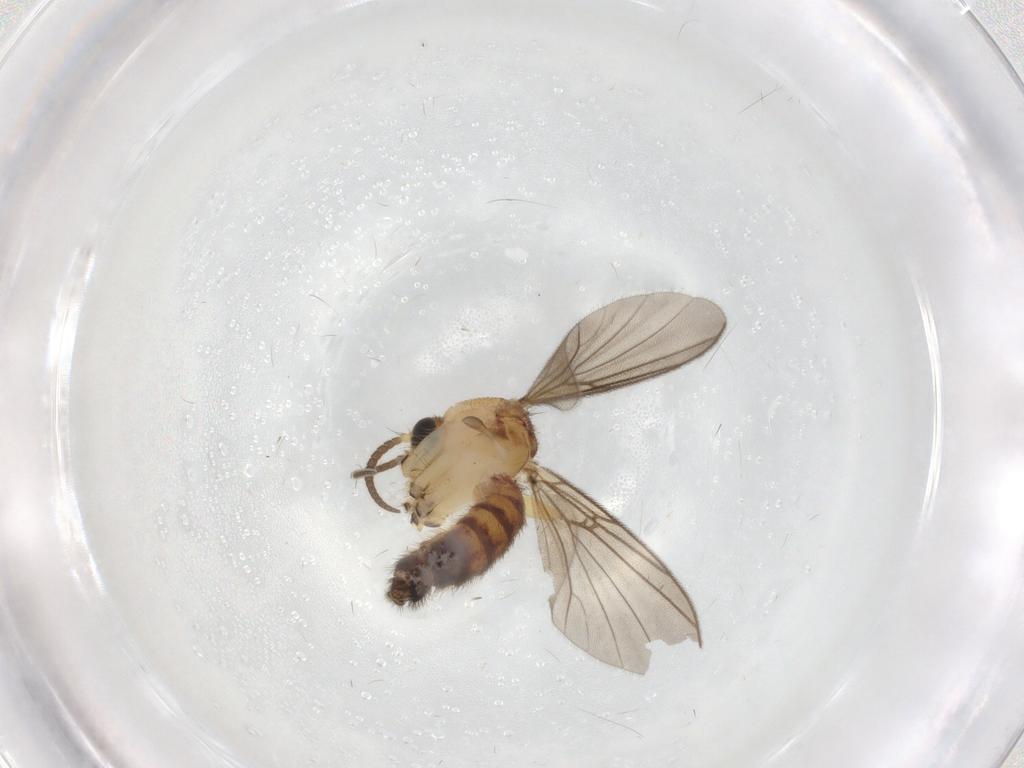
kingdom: Animalia
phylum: Arthropoda
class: Insecta
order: Diptera
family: Mycetophilidae
